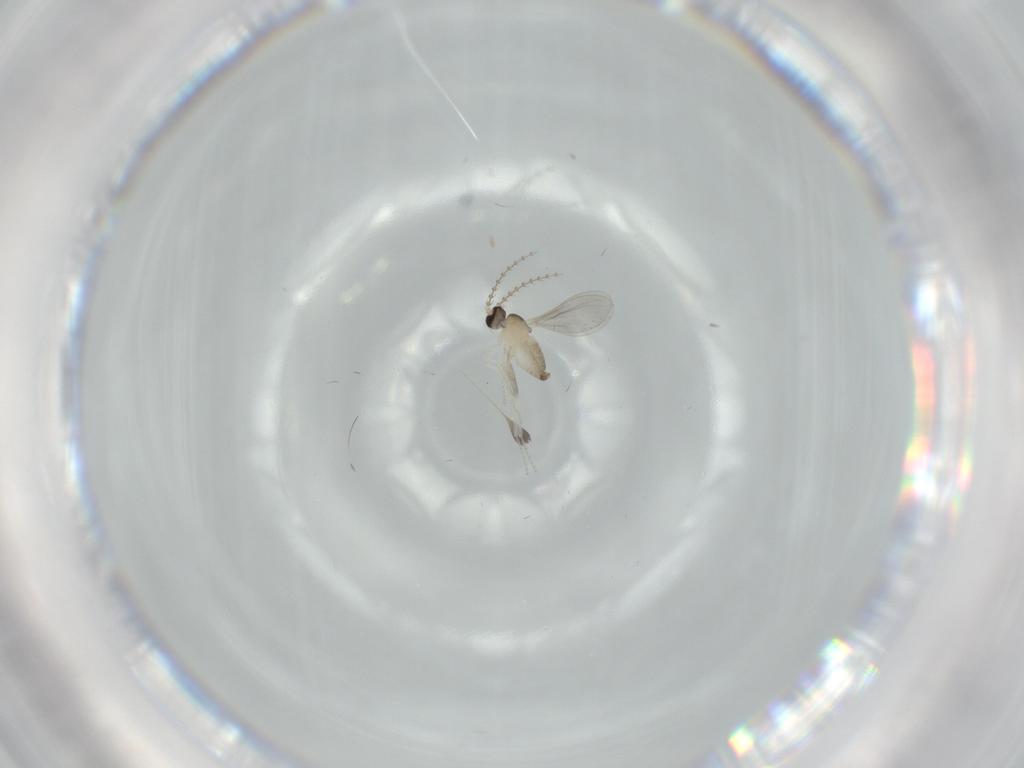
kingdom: Animalia
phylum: Arthropoda
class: Insecta
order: Diptera
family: Cecidomyiidae
